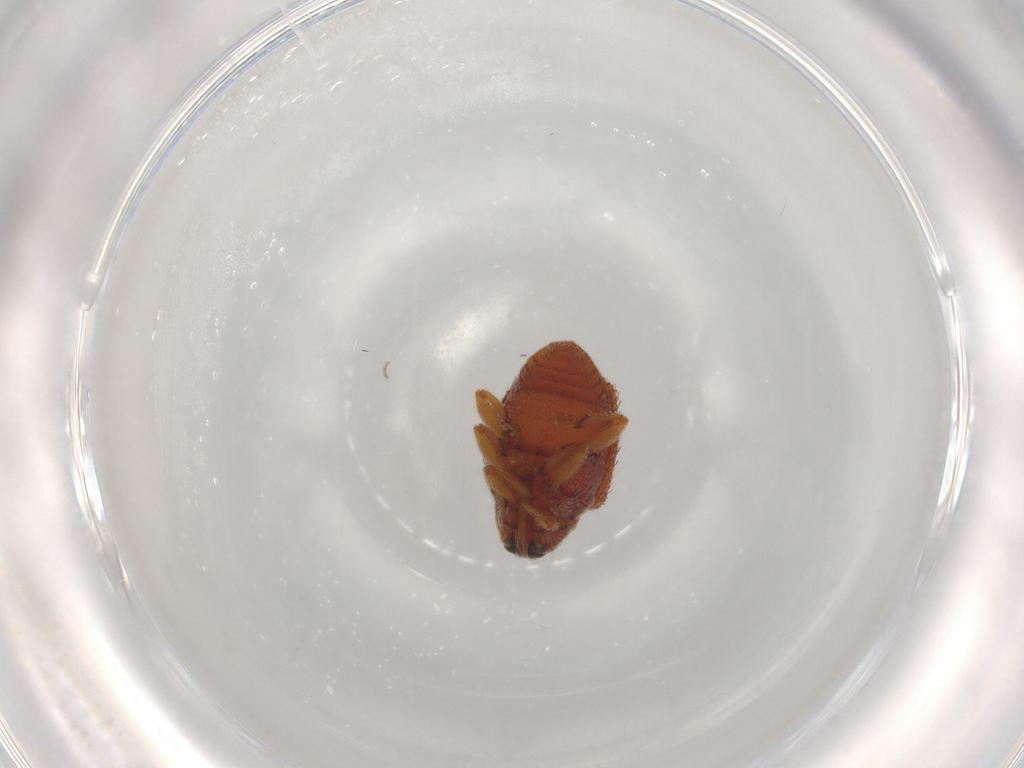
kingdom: Animalia
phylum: Arthropoda
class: Insecta
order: Coleoptera
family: Curculionidae
